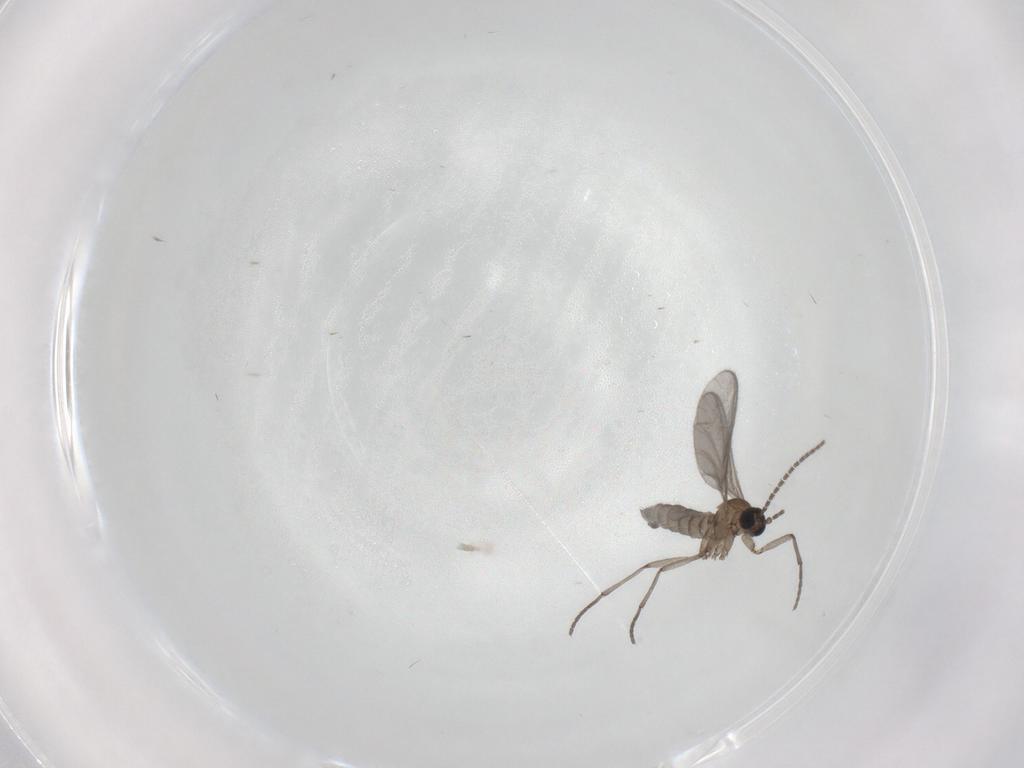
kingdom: Animalia
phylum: Arthropoda
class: Insecta
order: Diptera
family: Sciaridae
